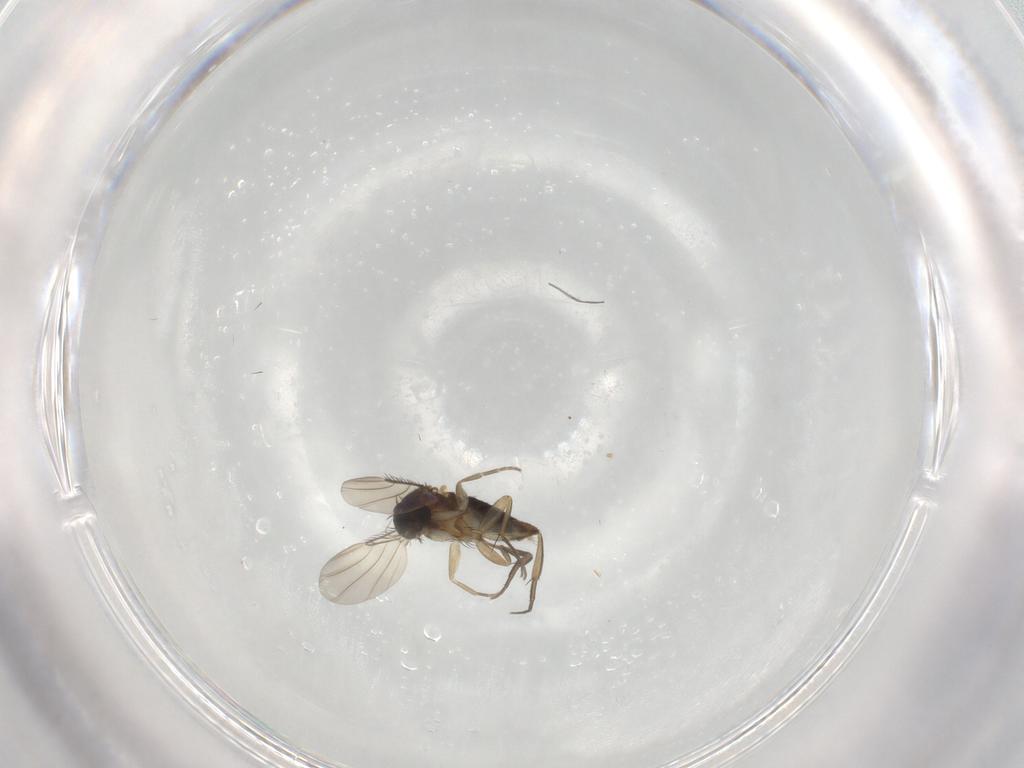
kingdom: Animalia
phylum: Arthropoda
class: Insecta
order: Diptera
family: Phoridae
